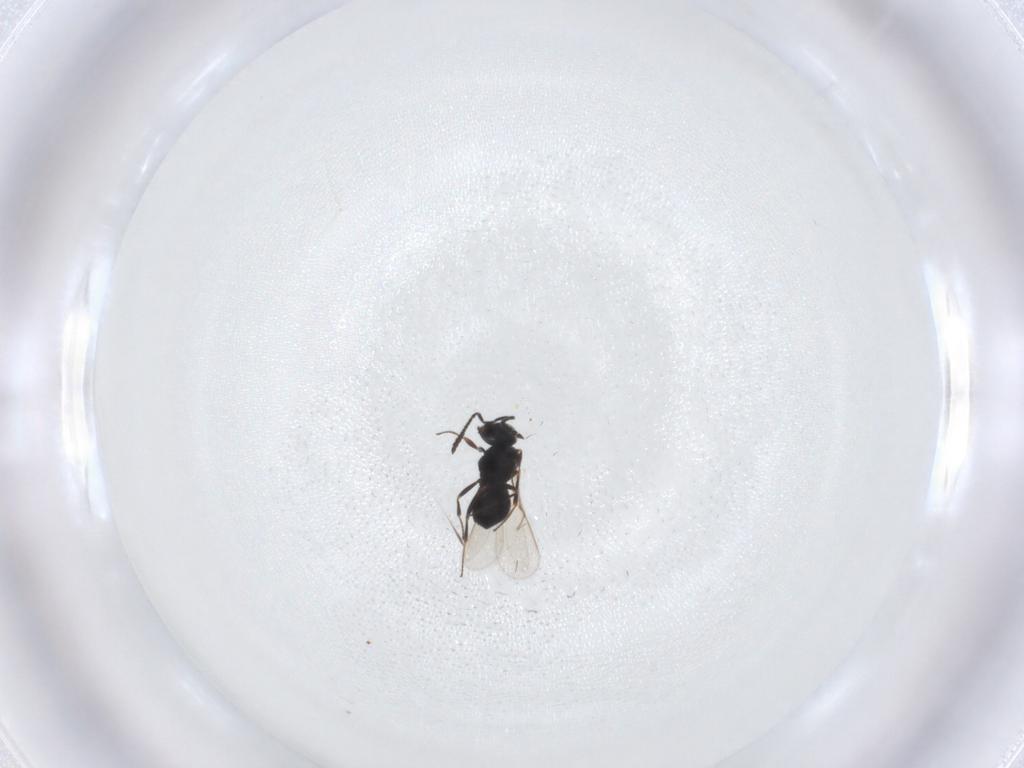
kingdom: Animalia
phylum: Arthropoda
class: Insecta
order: Hymenoptera
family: Scelionidae
